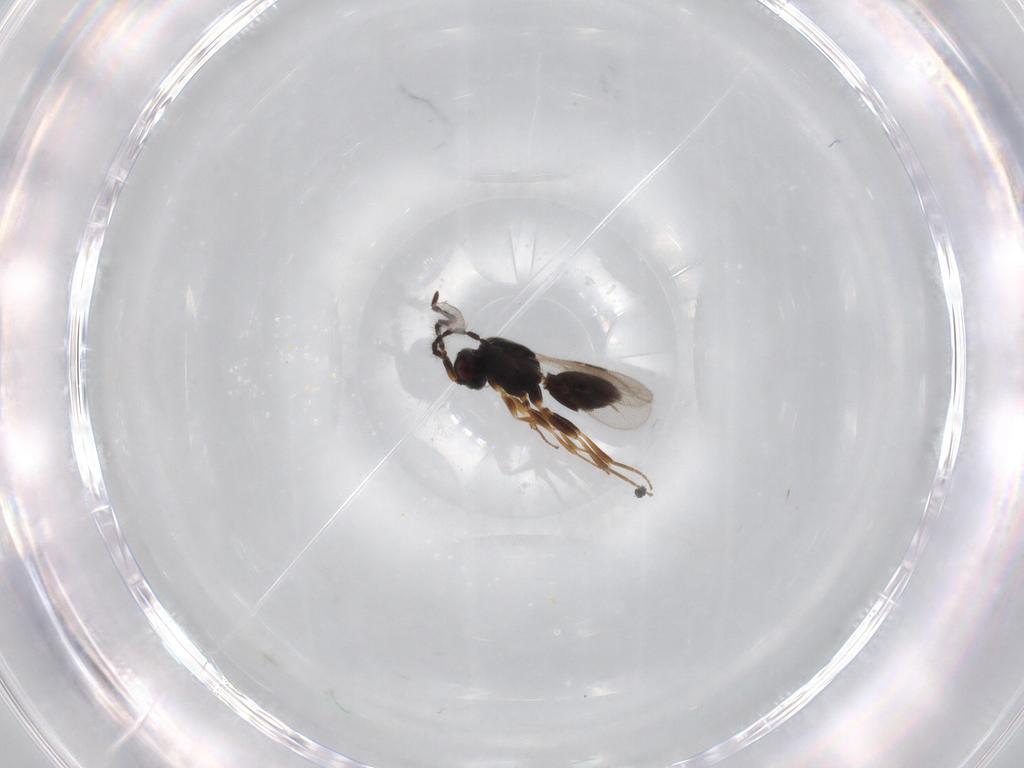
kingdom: Animalia
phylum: Arthropoda
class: Insecta
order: Hymenoptera
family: Megaspilidae
